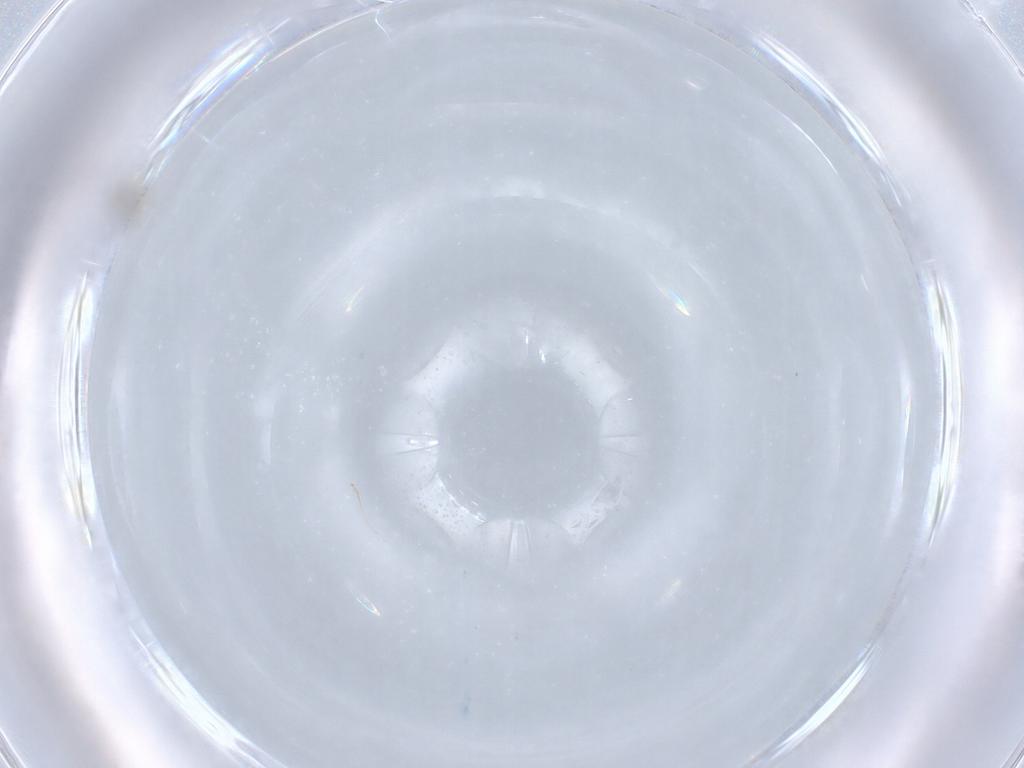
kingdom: Animalia
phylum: Arthropoda
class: Insecta
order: Diptera
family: Cecidomyiidae
